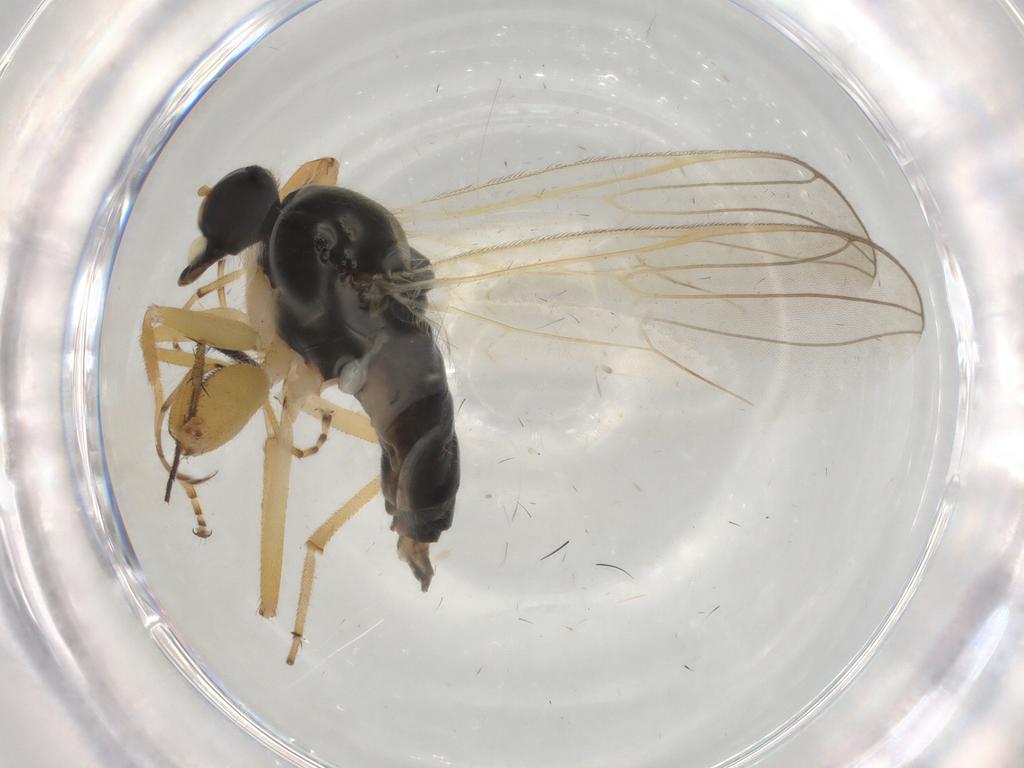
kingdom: Animalia
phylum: Arthropoda
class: Insecta
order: Diptera
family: Hybotidae
